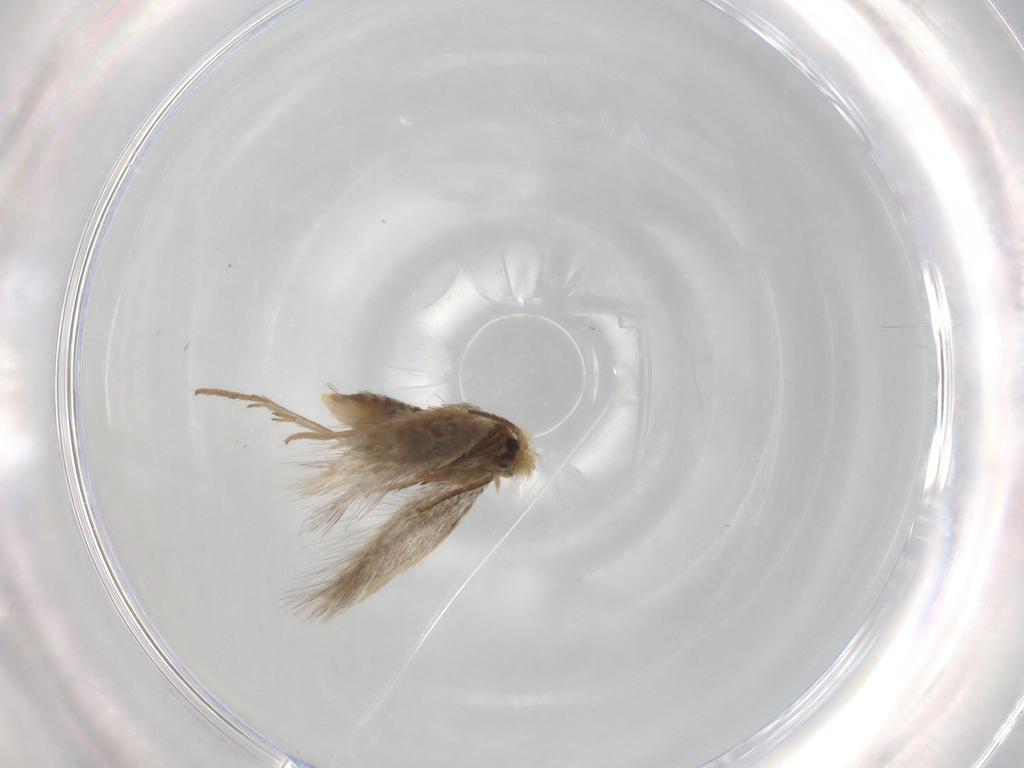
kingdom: Animalia
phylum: Arthropoda
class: Insecta
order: Lepidoptera
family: Nepticulidae
